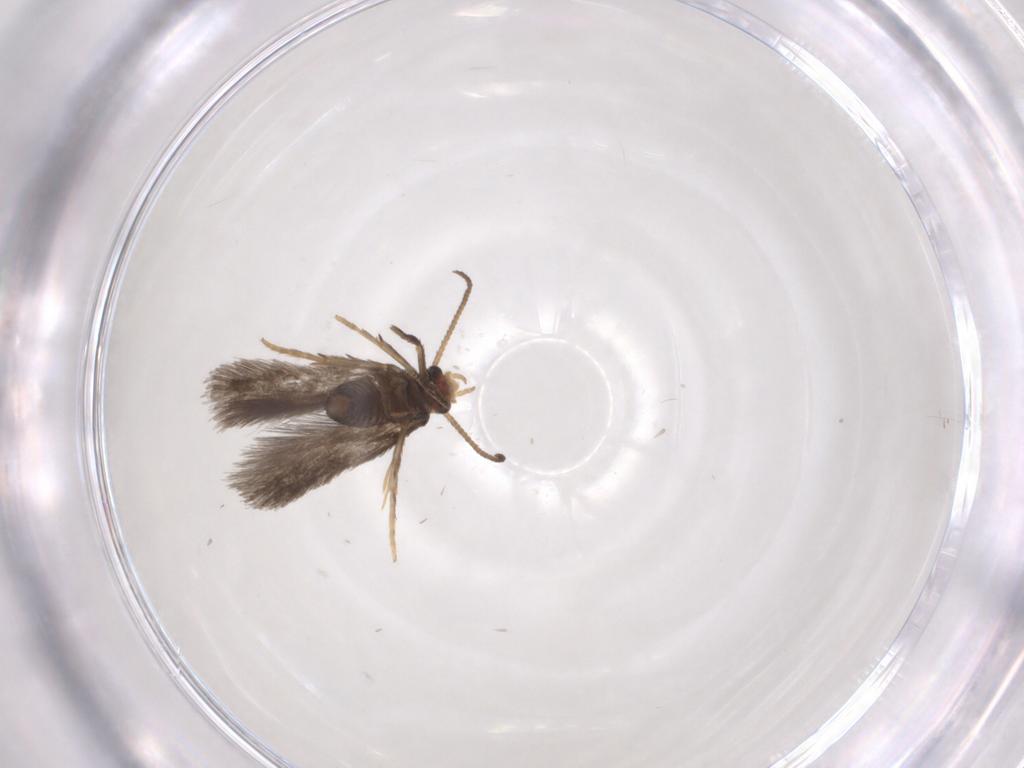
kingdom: Animalia
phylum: Arthropoda
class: Insecta
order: Lepidoptera
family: Nepticulidae
